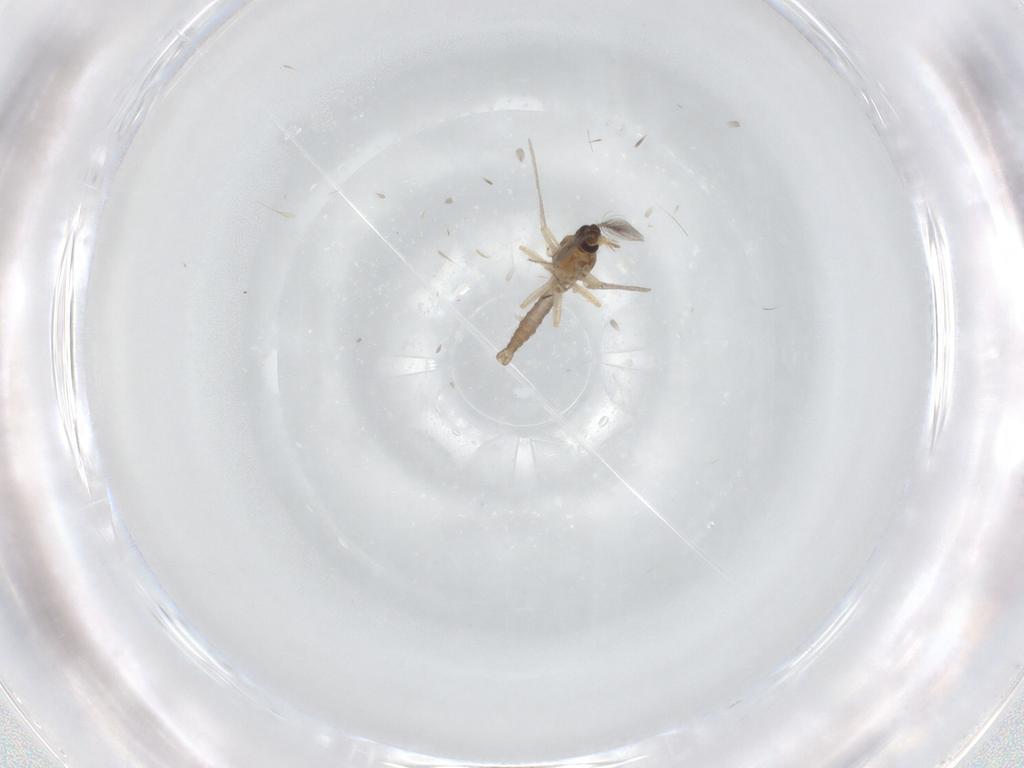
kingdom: Animalia
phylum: Arthropoda
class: Insecta
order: Diptera
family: Ceratopogonidae
